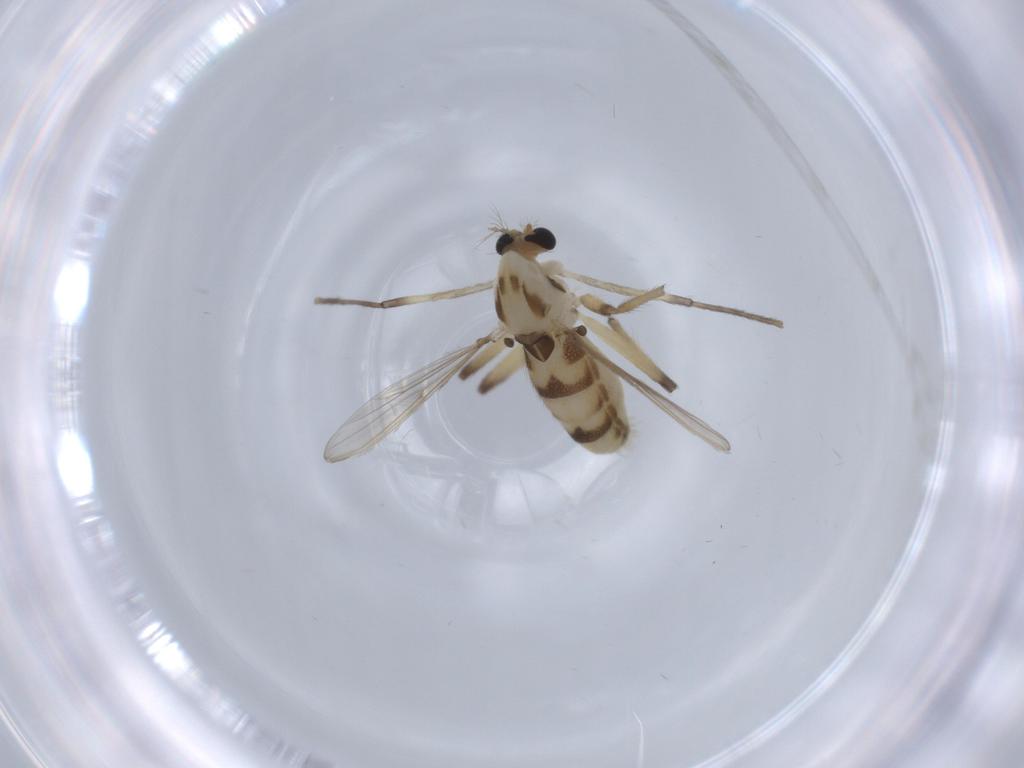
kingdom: Animalia
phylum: Arthropoda
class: Insecta
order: Diptera
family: Chironomidae
